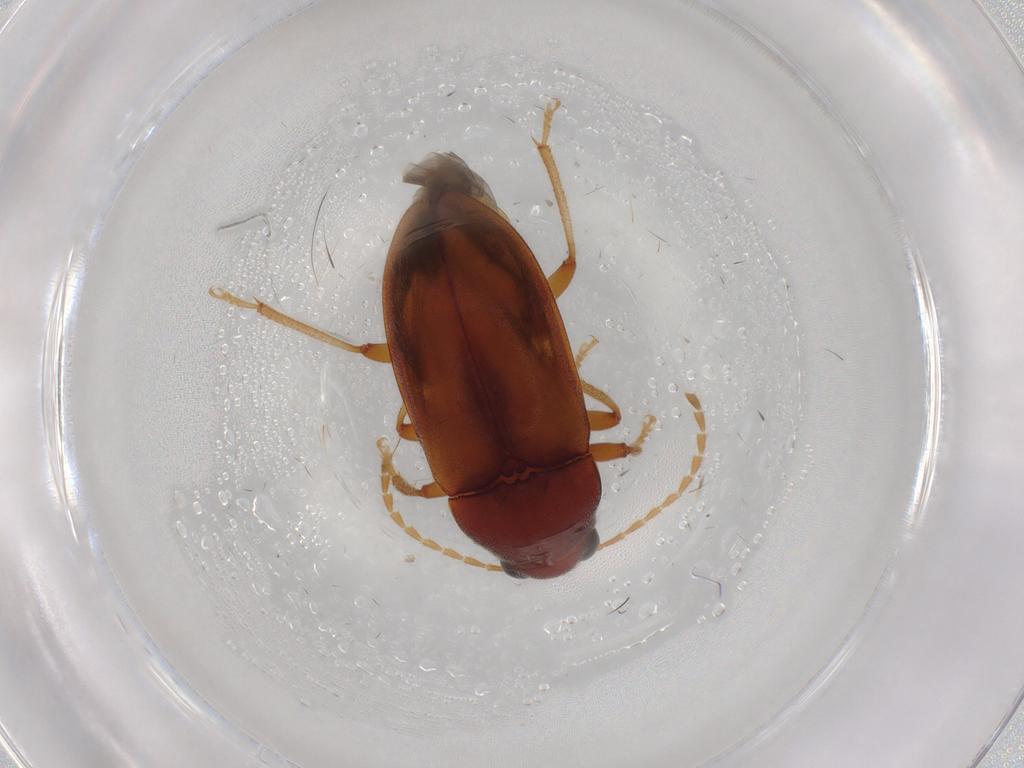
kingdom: Animalia
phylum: Arthropoda
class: Insecta
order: Coleoptera
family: Ptilodactylidae
